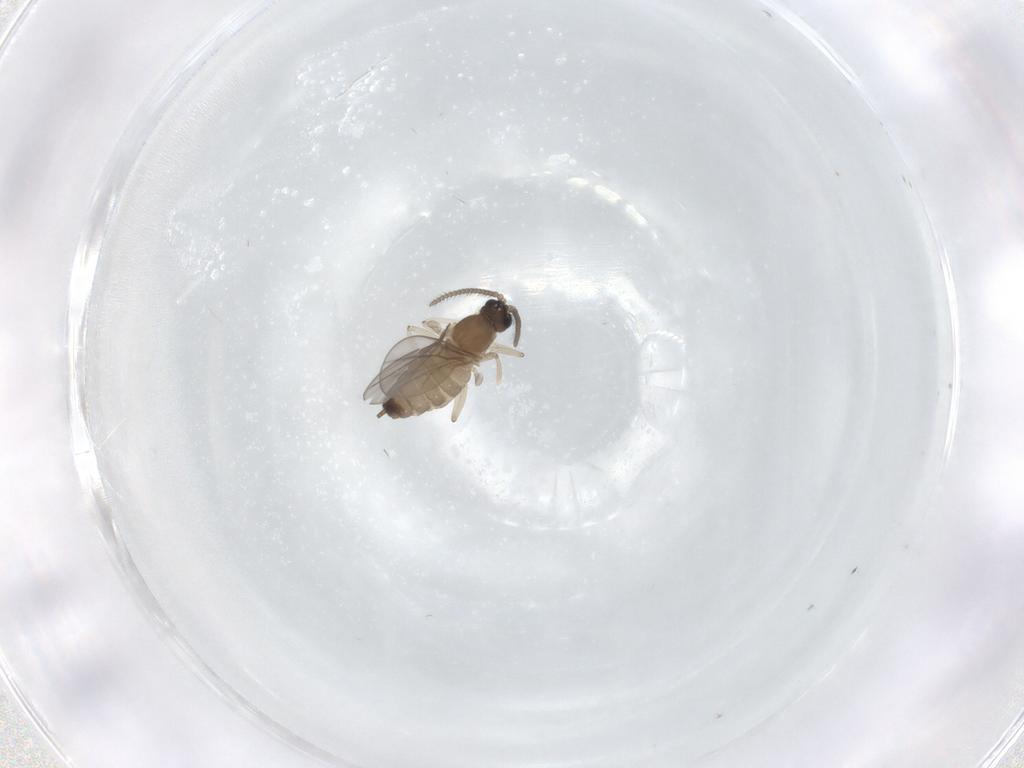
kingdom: Animalia
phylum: Arthropoda
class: Insecta
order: Diptera
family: Cecidomyiidae
